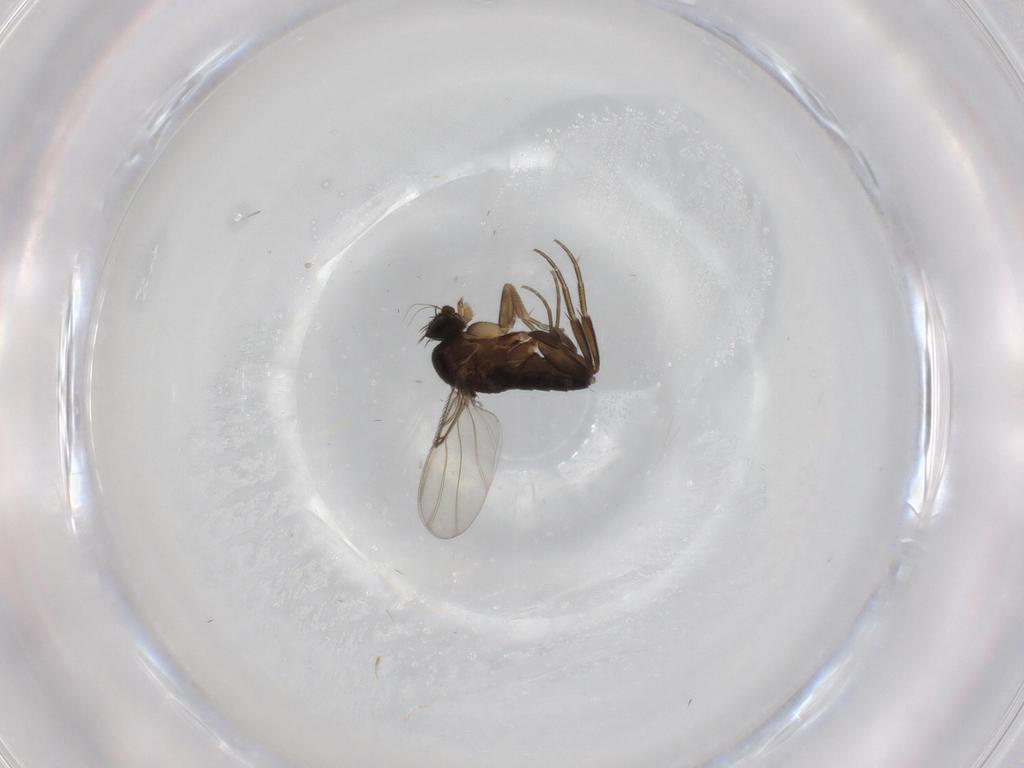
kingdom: Animalia
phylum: Arthropoda
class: Insecta
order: Diptera
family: Phoridae
